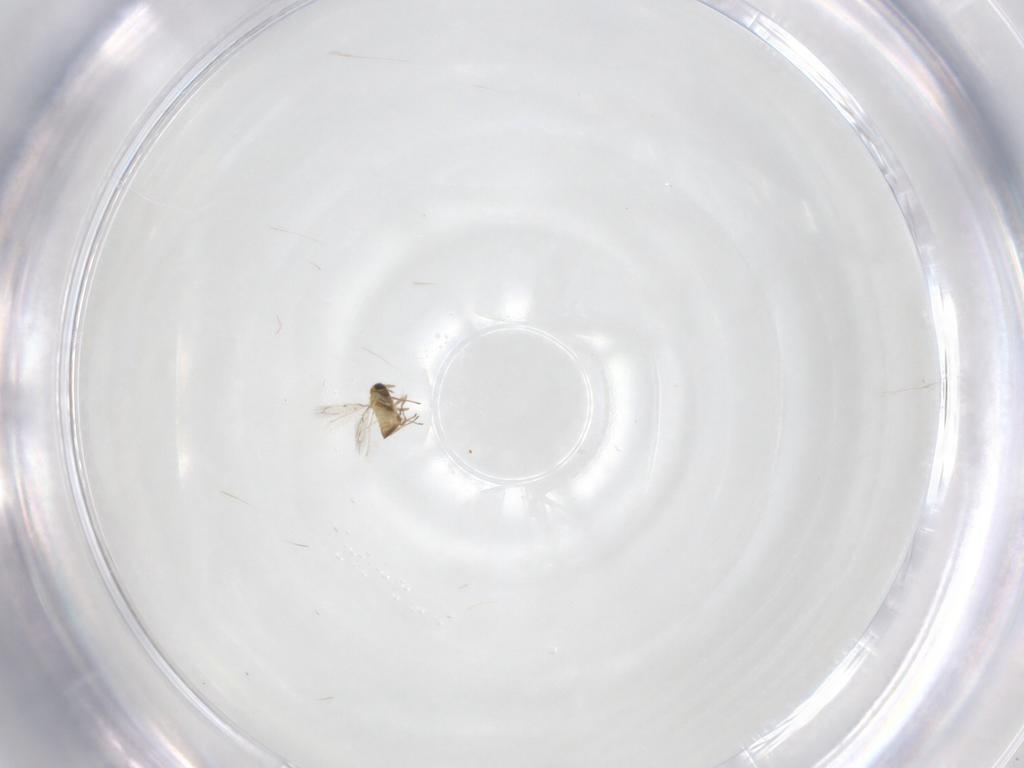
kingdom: Animalia
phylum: Arthropoda
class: Insecta
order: Hymenoptera
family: Trichogrammatidae
